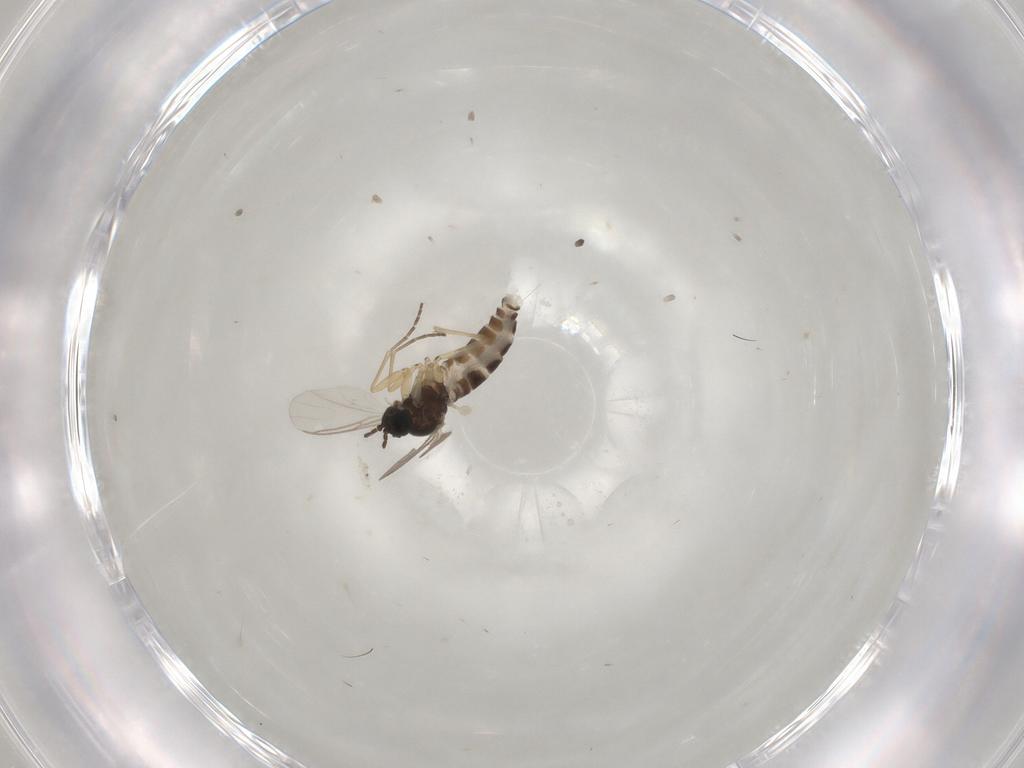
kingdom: Animalia
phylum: Arthropoda
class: Insecta
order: Diptera
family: Sciaridae
